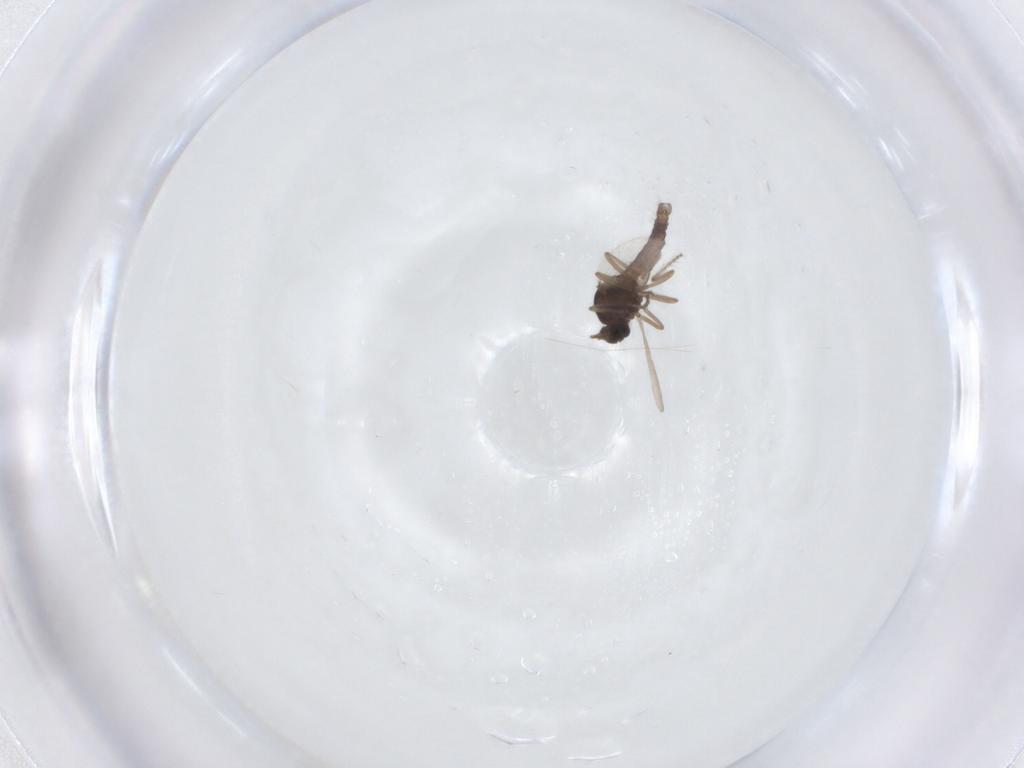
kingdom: Animalia
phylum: Arthropoda
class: Insecta
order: Diptera
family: Ceratopogonidae
